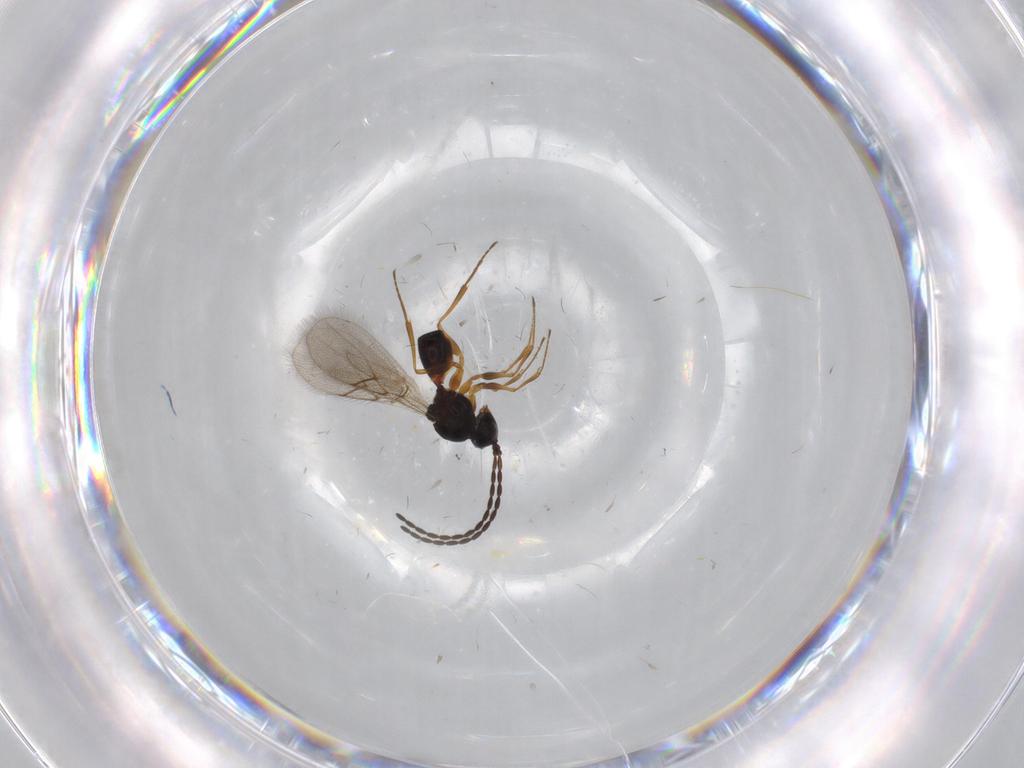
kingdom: Animalia
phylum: Arthropoda
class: Insecta
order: Hymenoptera
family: Figitidae
